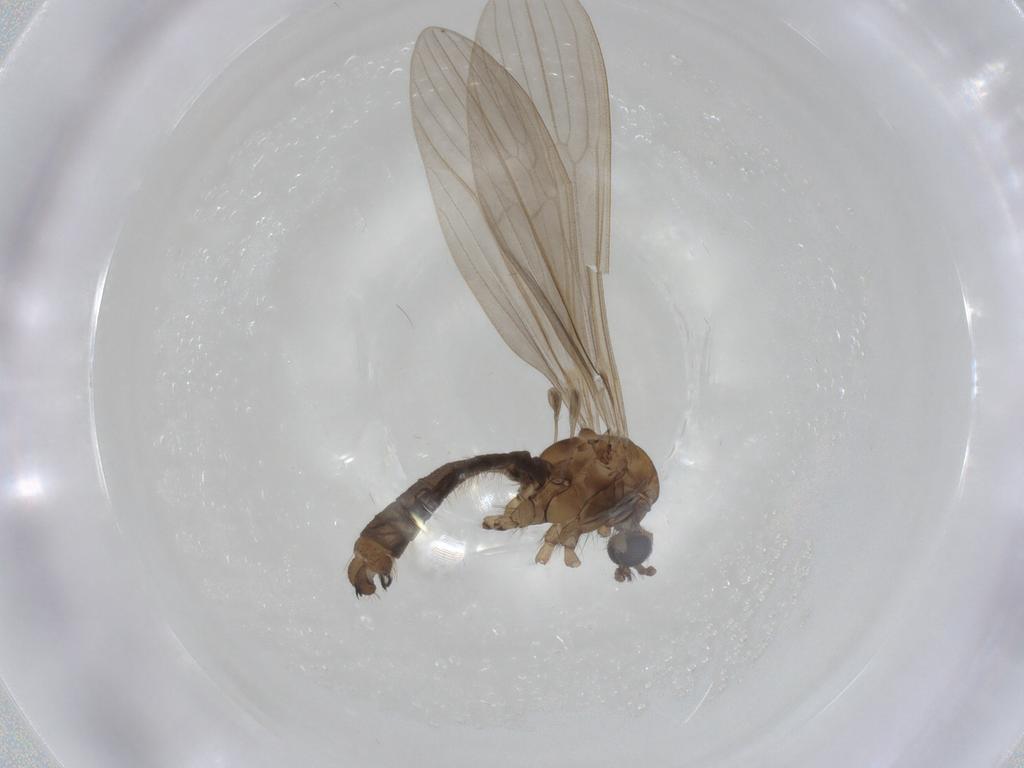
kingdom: Animalia
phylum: Arthropoda
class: Insecta
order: Diptera
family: Limoniidae
